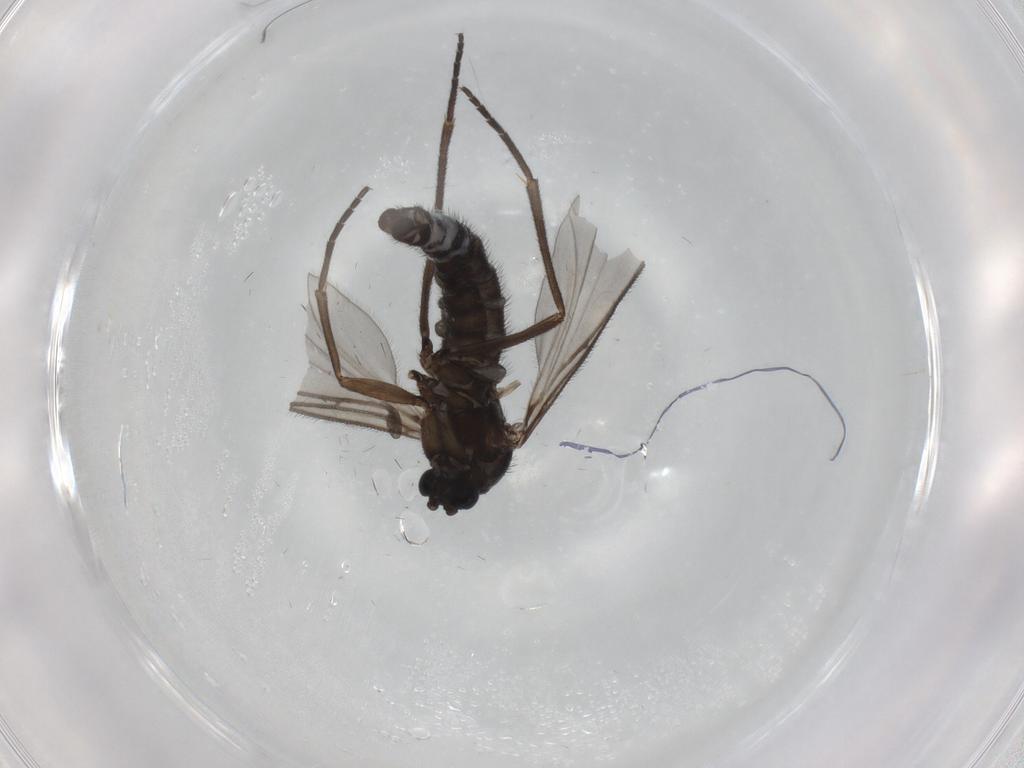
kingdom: Animalia
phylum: Arthropoda
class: Insecta
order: Diptera
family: Sciaridae
